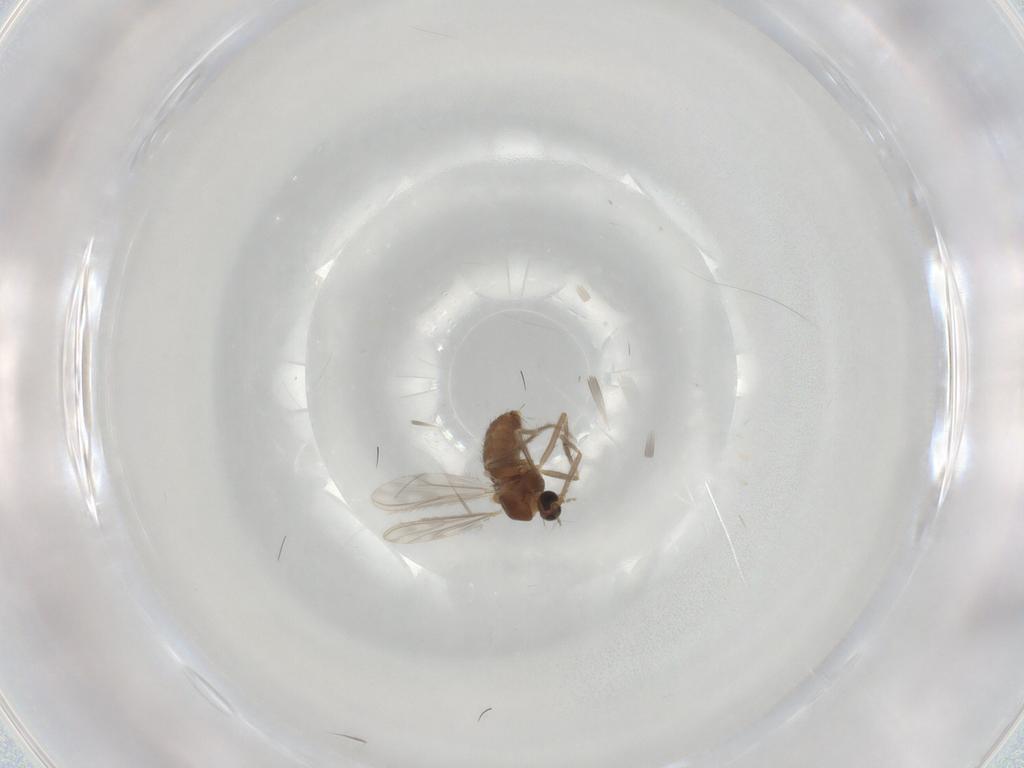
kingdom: Animalia
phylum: Arthropoda
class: Insecta
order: Diptera
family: Chironomidae
